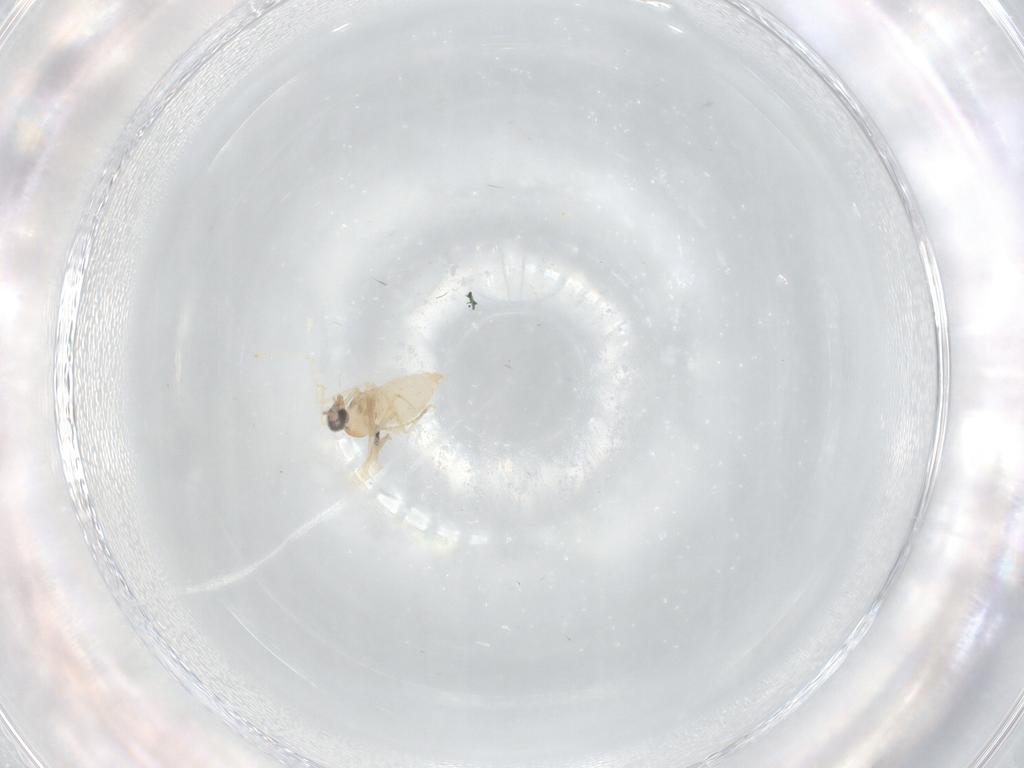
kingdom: Animalia
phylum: Arthropoda
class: Insecta
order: Diptera
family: Cecidomyiidae
